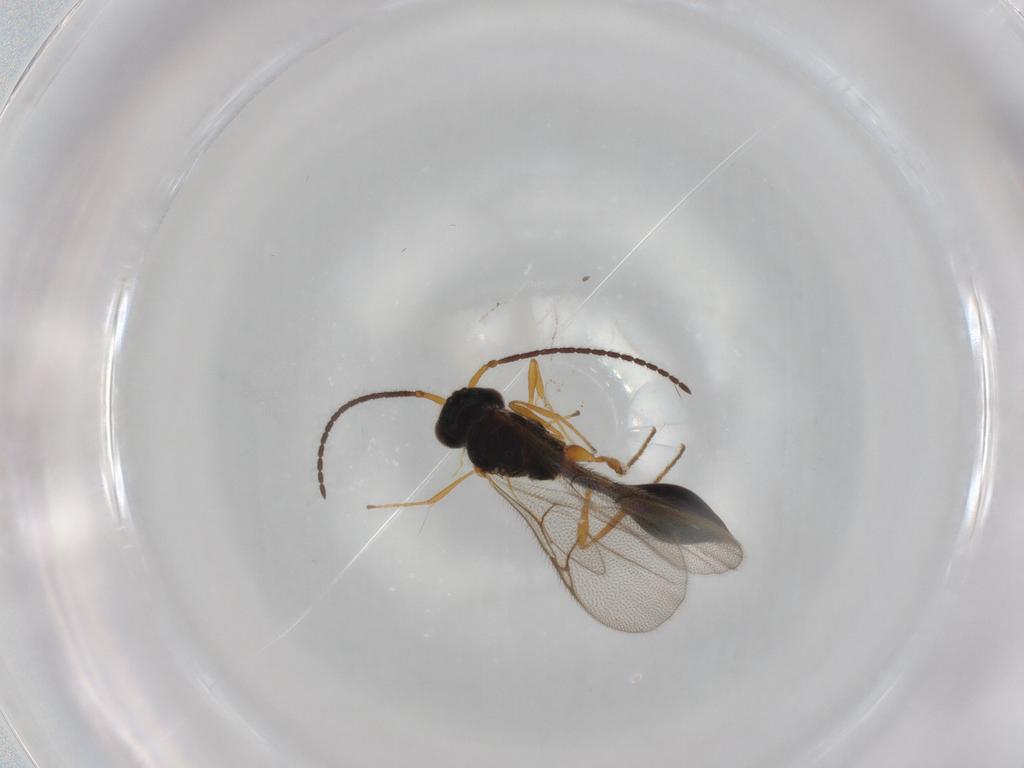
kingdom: Animalia
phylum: Arthropoda
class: Insecta
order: Hymenoptera
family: Diapriidae
